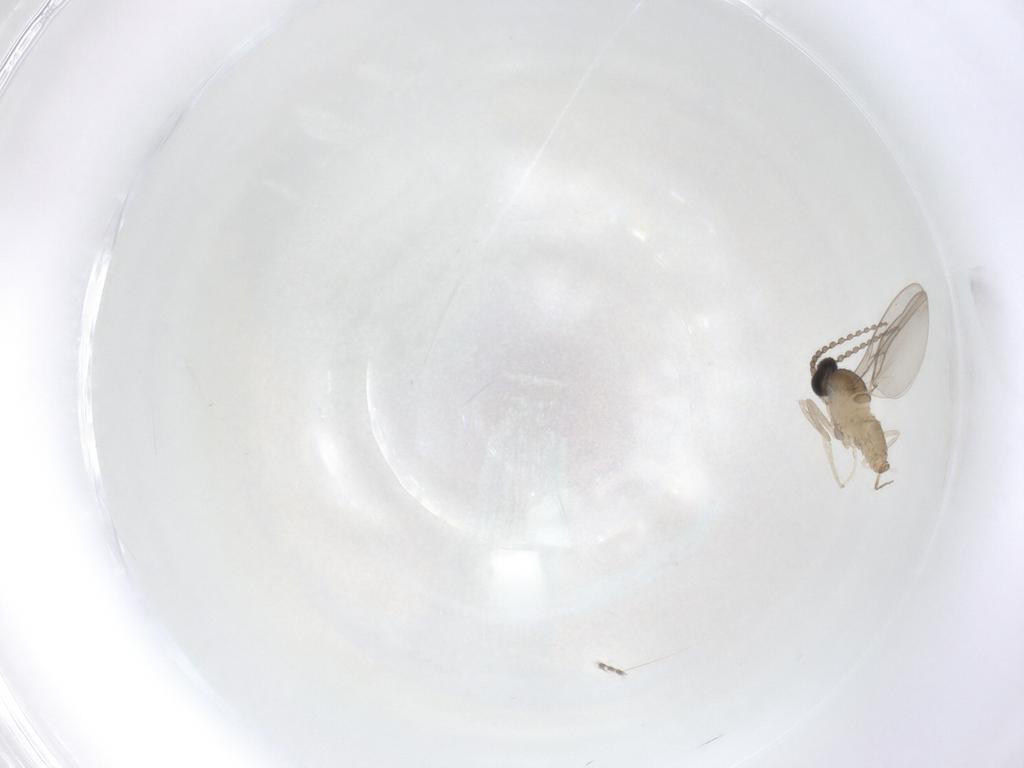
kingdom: Animalia
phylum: Arthropoda
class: Insecta
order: Diptera
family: Cecidomyiidae
